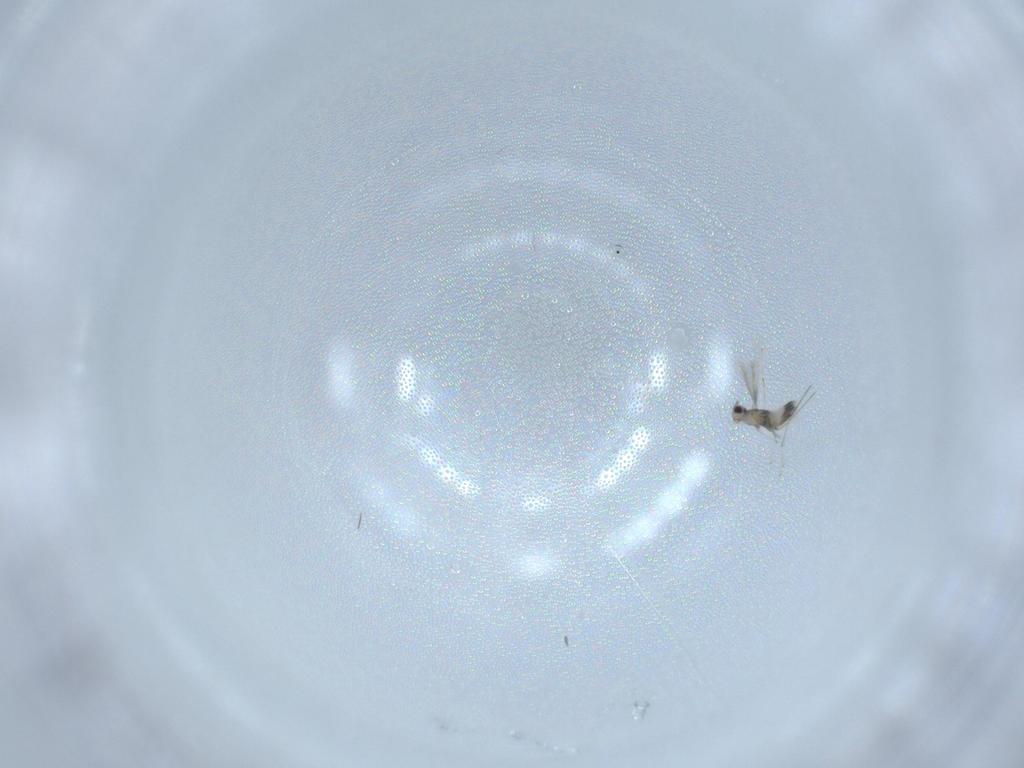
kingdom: Animalia
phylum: Arthropoda
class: Insecta
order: Hymenoptera
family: Mymaridae
